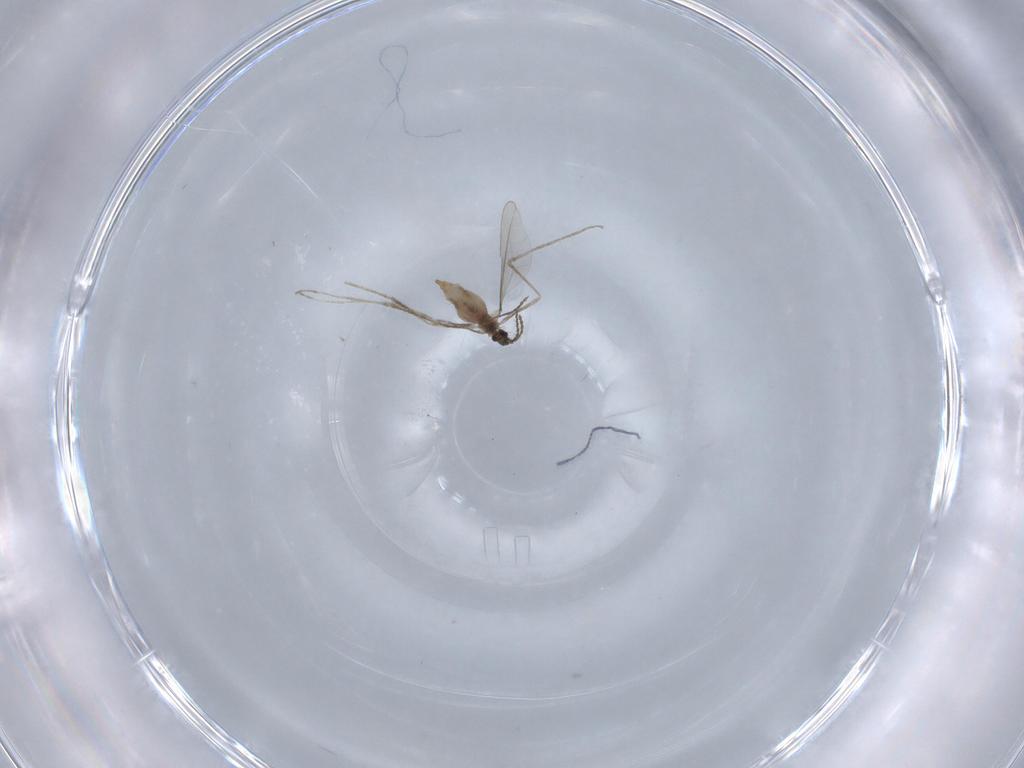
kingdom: Animalia
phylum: Arthropoda
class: Insecta
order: Diptera
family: Cecidomyiidae
